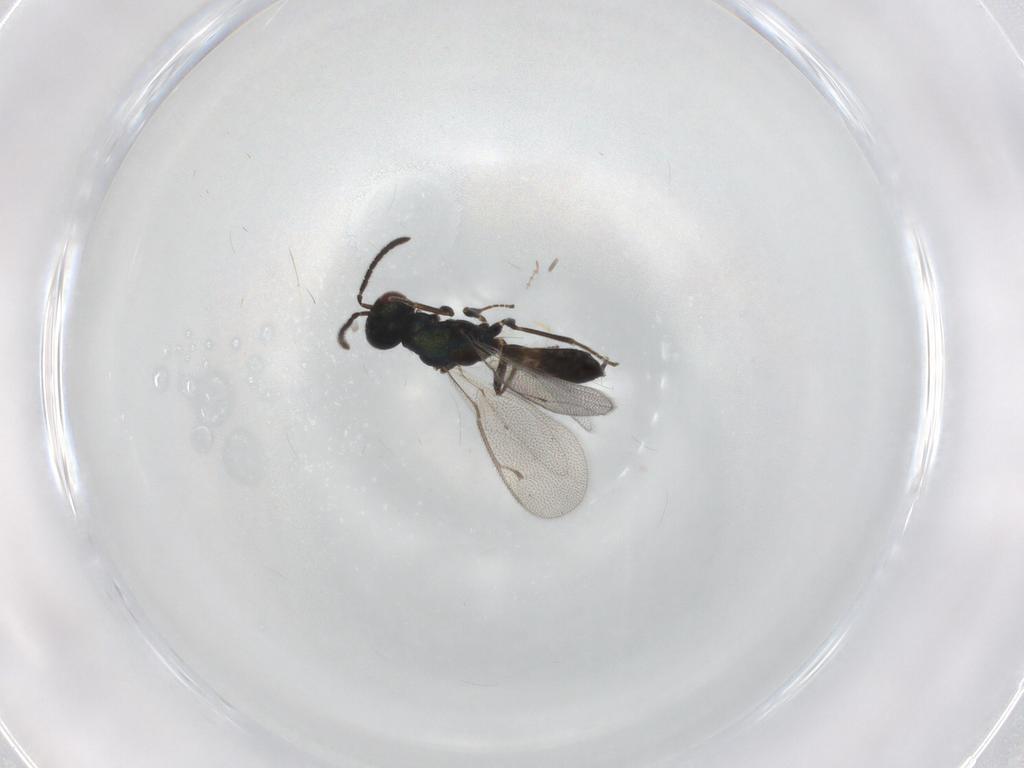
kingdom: Animalia
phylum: Arthropoda
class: Insecta
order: Hymenoptera
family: Pteromalidae
